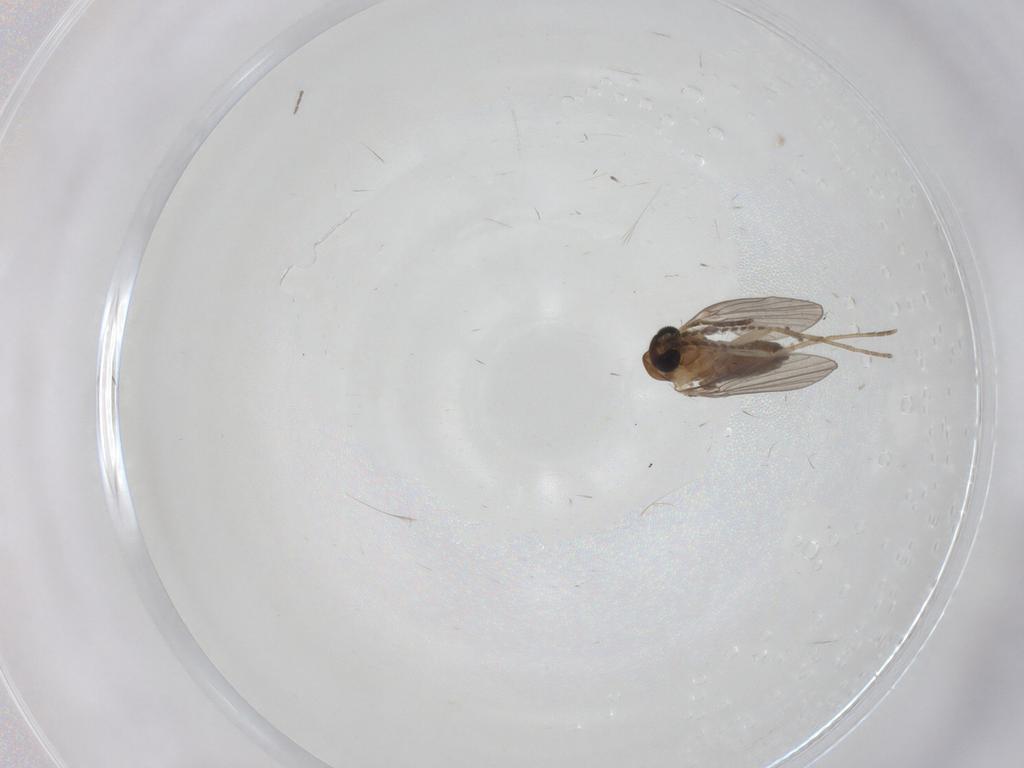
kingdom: Animalia
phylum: Arthropoda
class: Insecta
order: Diptera
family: Phoridae
